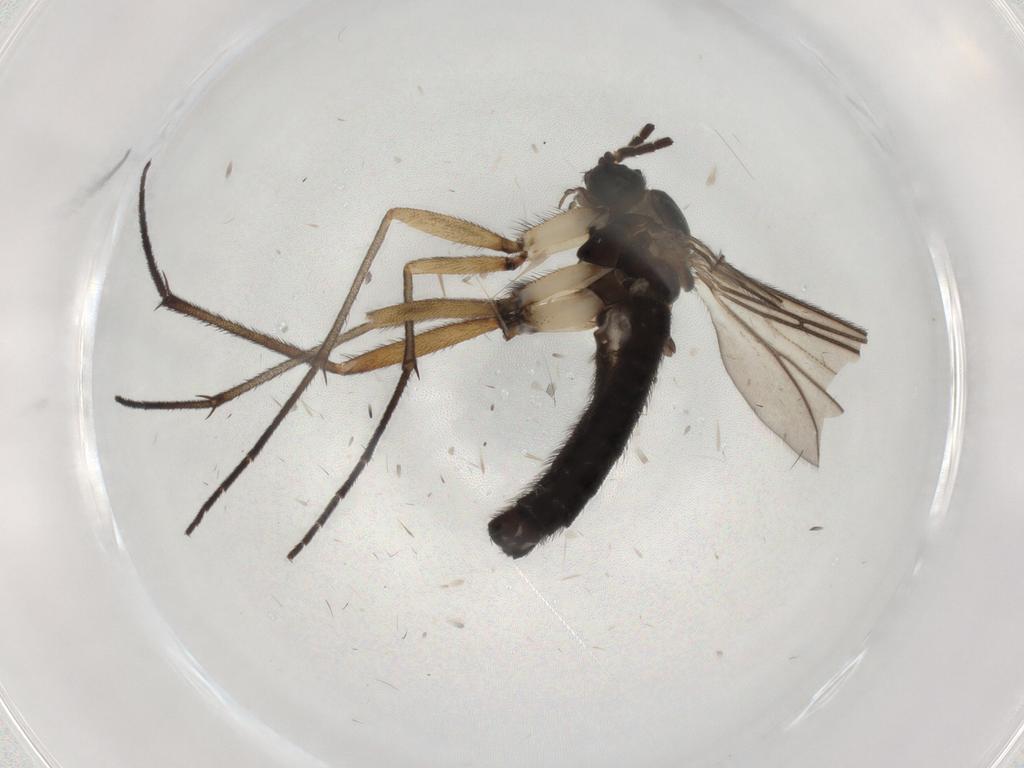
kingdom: Animalia
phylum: Arthropoda
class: Insecta
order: Diptera
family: Sciaridae
